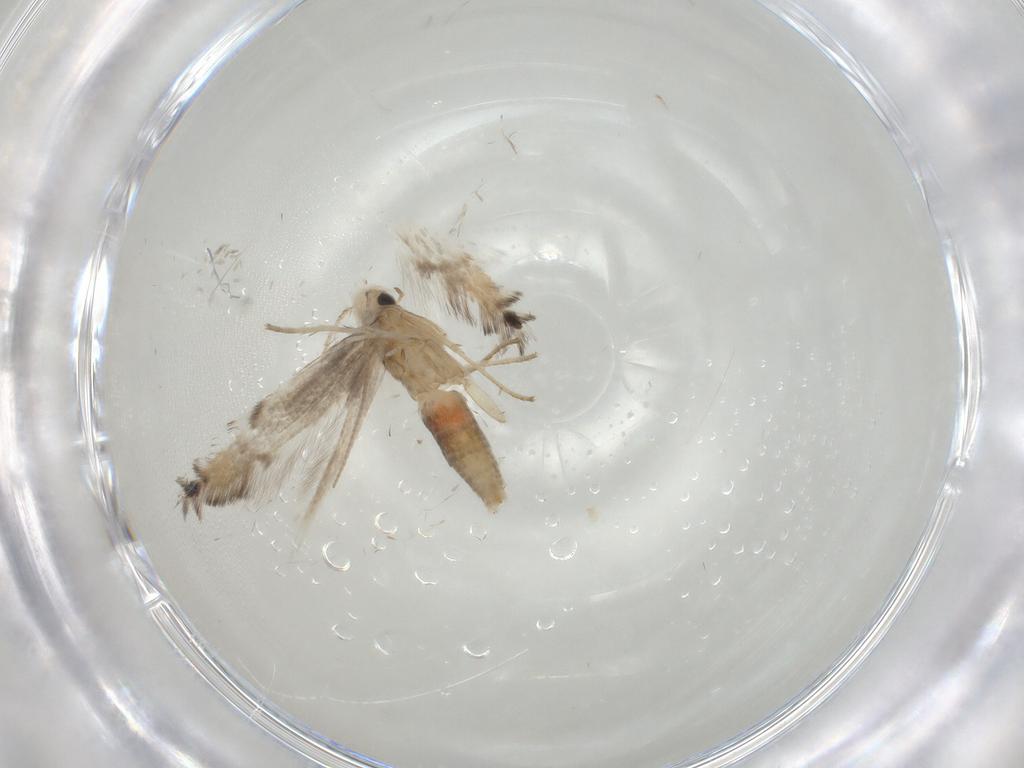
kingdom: Animalia
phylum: Arthropoda
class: Insecta
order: Lepidoptera
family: Gracillariidae
